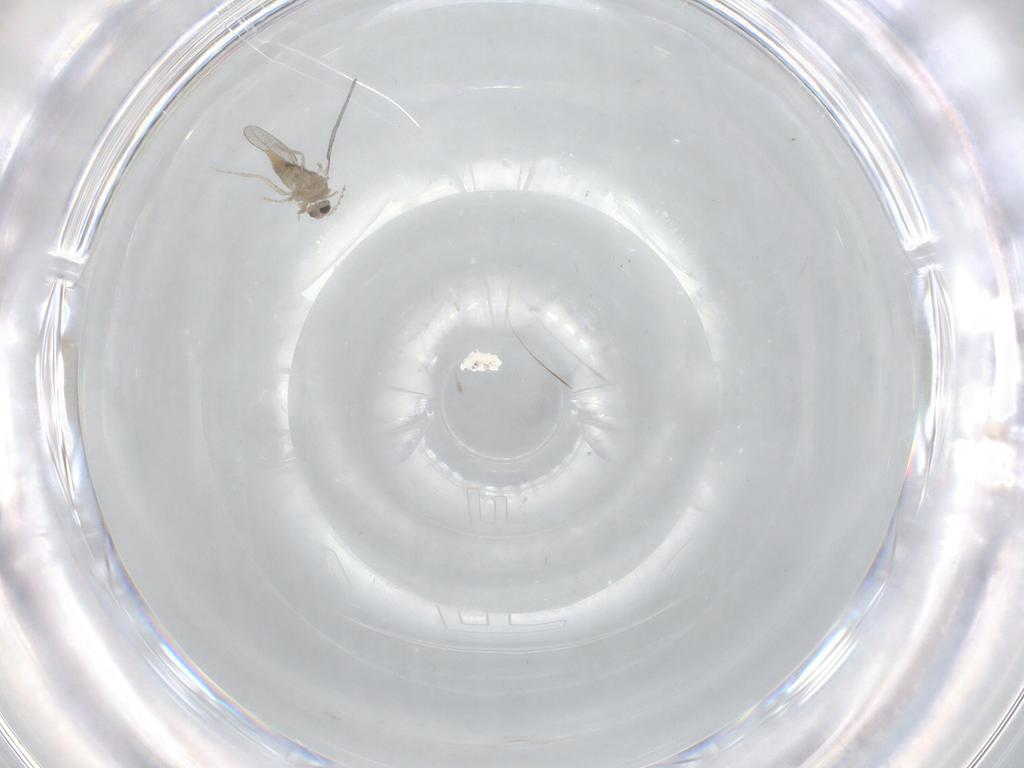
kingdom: Animalia
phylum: Arthropoda
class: Insecta
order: Diptera
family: Cecidomyiidae
